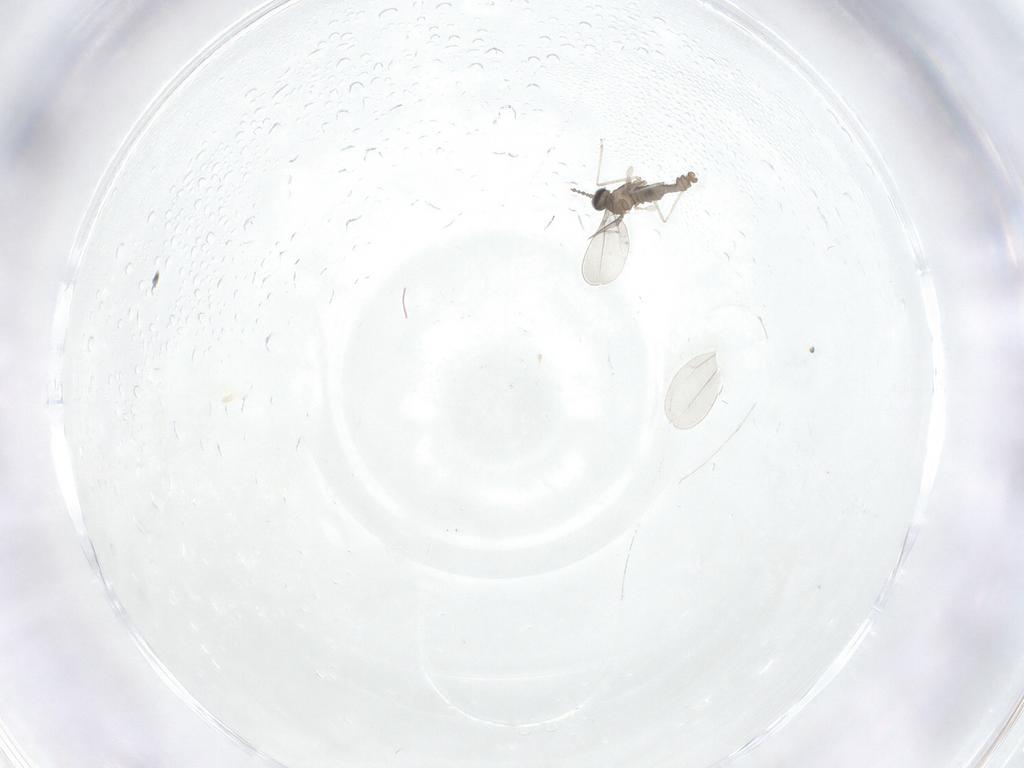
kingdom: Animalia
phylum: Arthropoda
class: Insecta
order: Diptera
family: Cecidomyiidae
